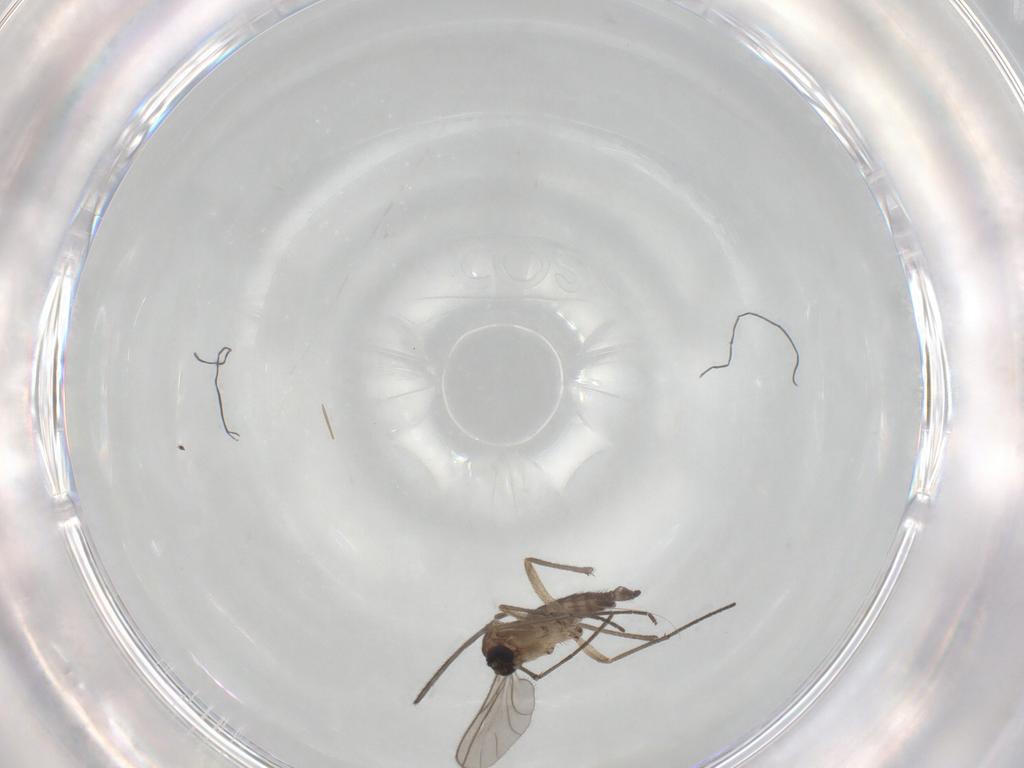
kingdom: Animalia
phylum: Arthropoda
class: Insecta
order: Diptera
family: Sciaridae
